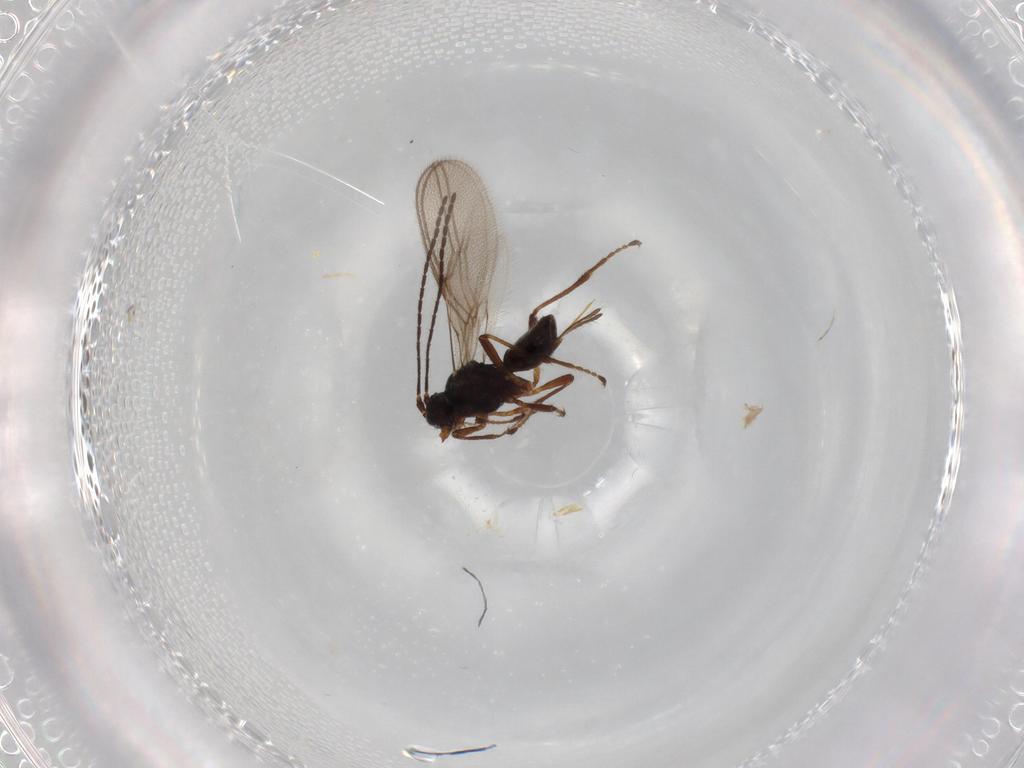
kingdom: Animalia
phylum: Arthropoda
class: Insecta
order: Hymenoptera
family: Braconidae
